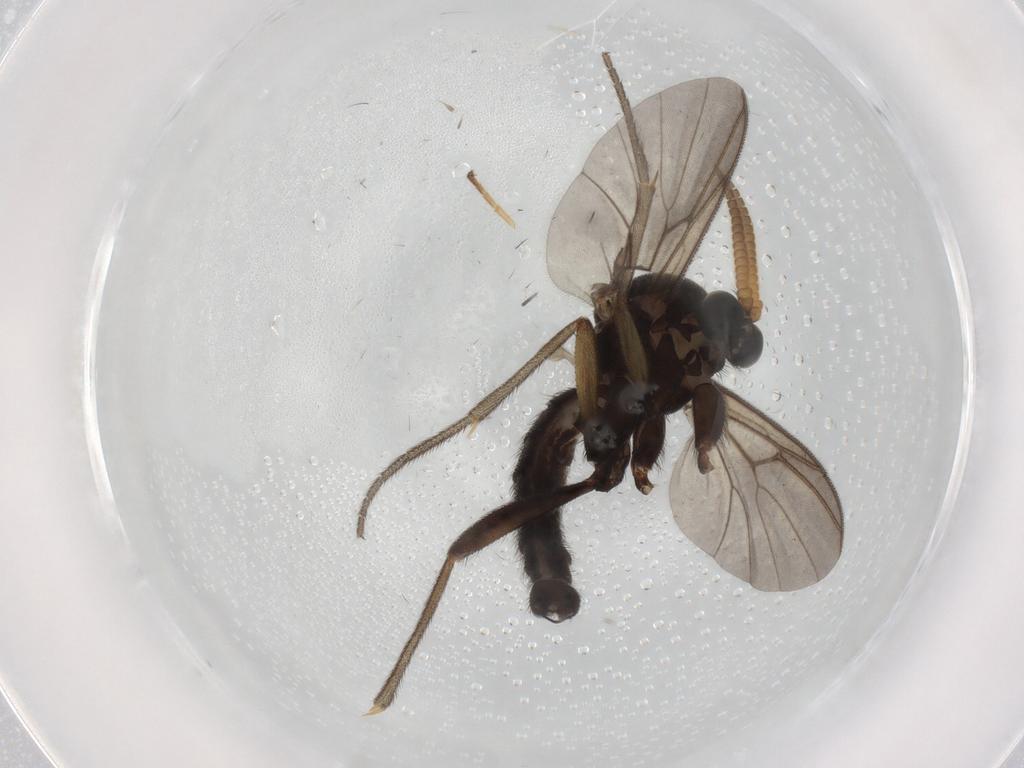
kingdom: Animalia
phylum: Arthropoda
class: Insecta
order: Diptera
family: Mycetophilidae
